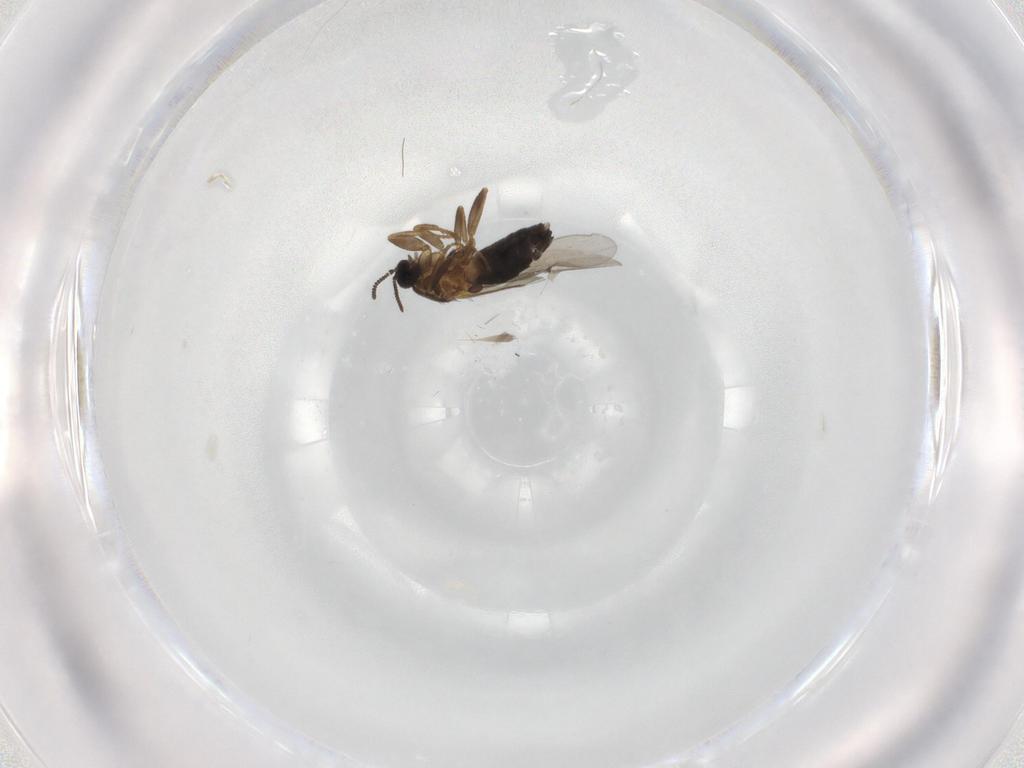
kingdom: Animalia
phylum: Arthropoda
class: Insecta
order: Diptera
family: Scatopsidae
